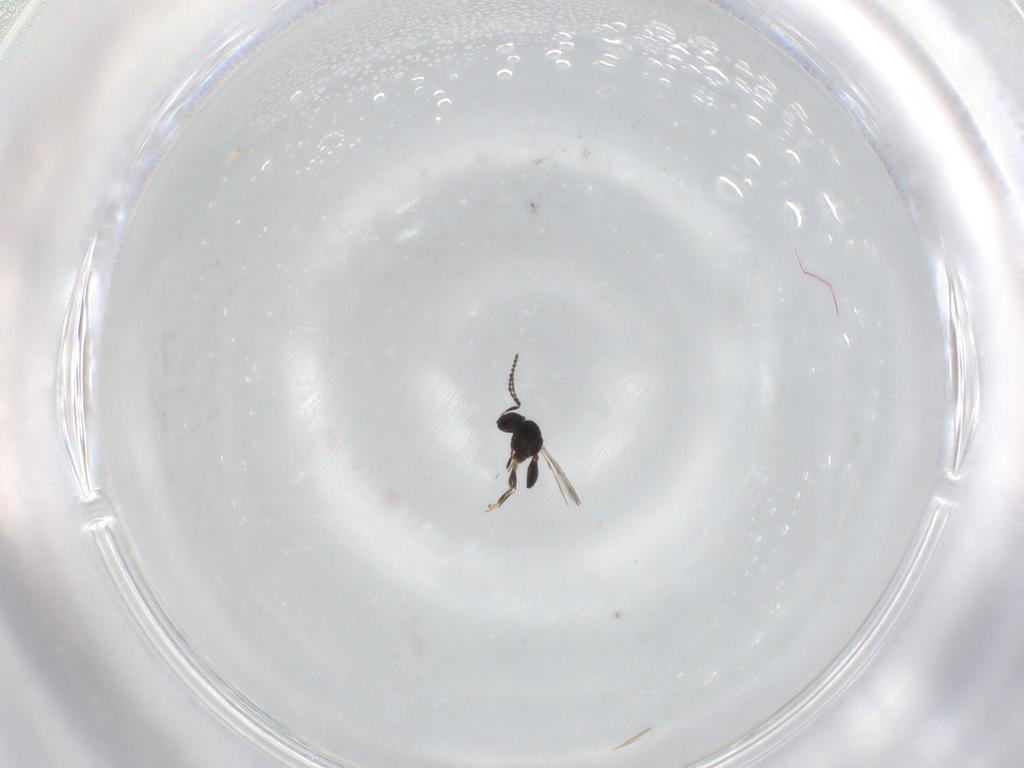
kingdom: Animalia
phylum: Arthropoda
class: Insecta
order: Hymenoptera
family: Scelionidae
